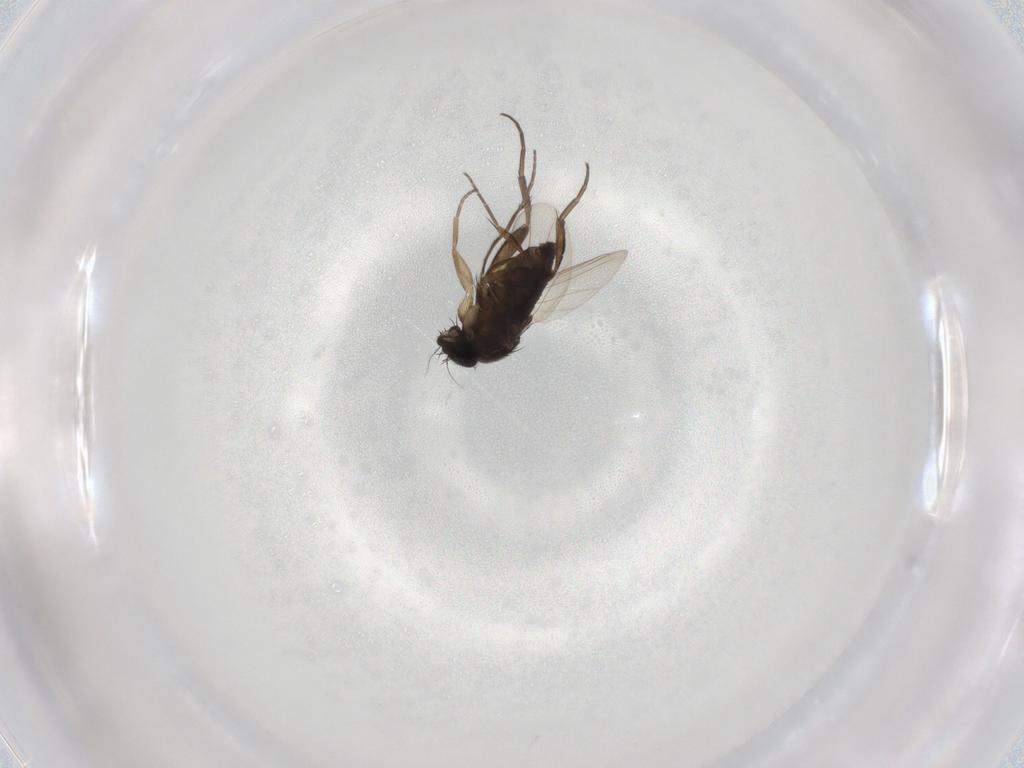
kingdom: Animalia
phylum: Arthropoda
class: Insecta
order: Diptera
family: Phoridae
